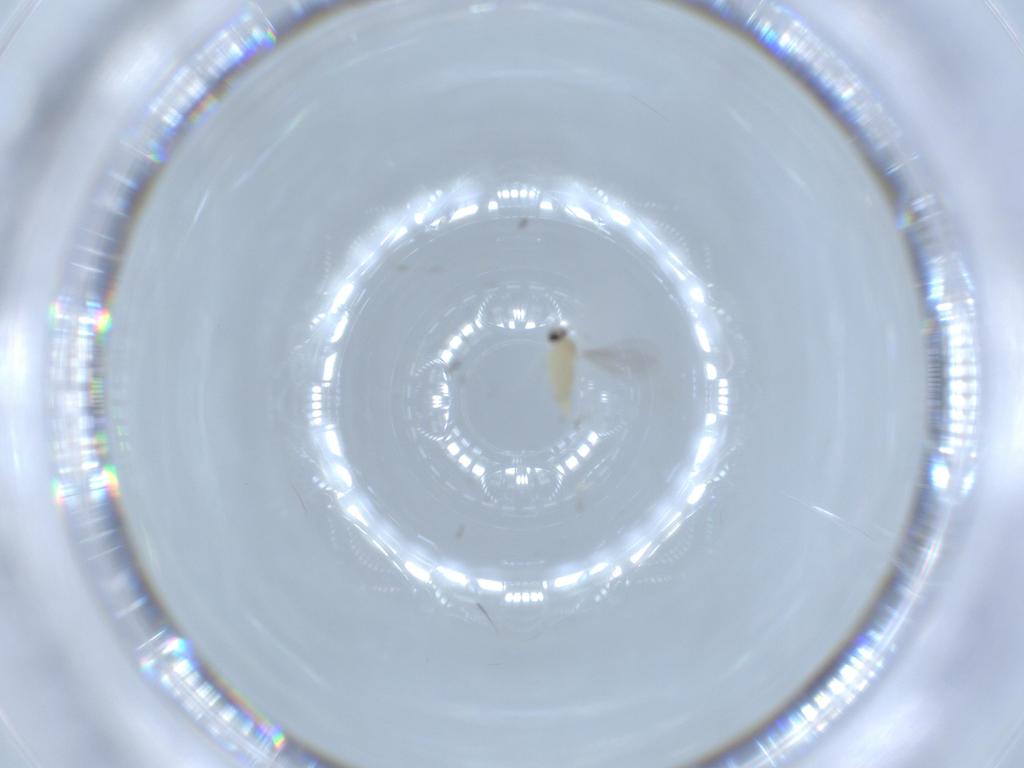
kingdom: Animalia
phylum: Arthropoda
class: Insecta
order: Diptera
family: Cecidomyiidae
